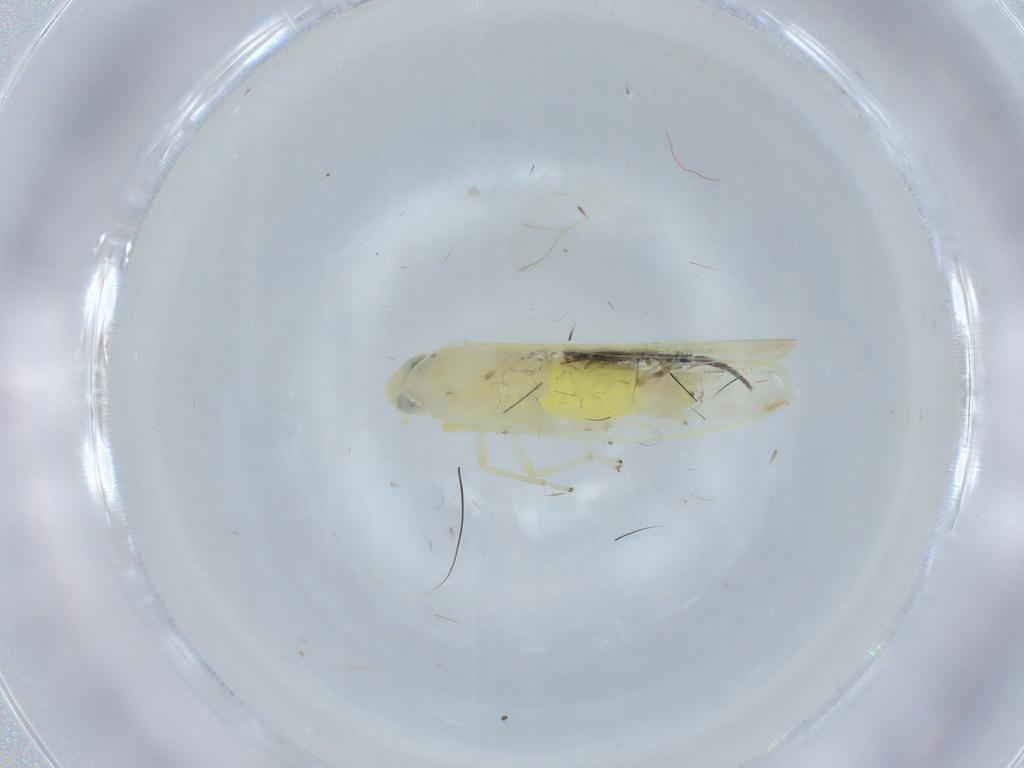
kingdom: Animalia
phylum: Arthropoda
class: Insecta
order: Hemiptera
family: Cicadellidae
